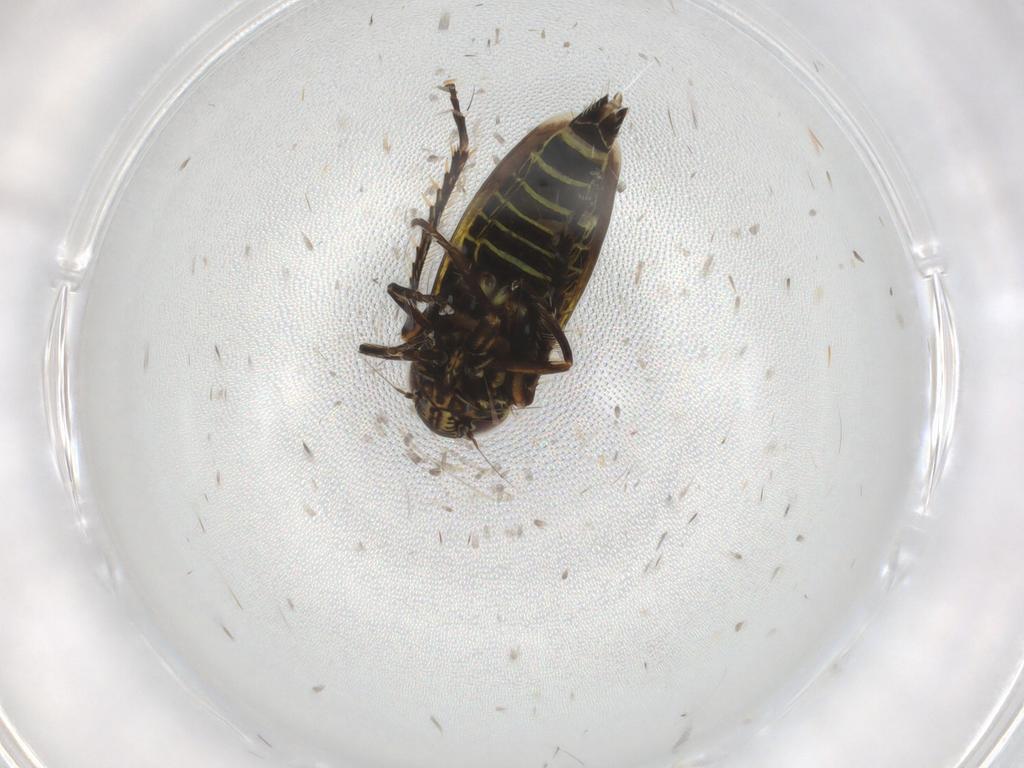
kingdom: Animalia
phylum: Arthropoda
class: Insecta
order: Hemiptera
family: Cicadellidae
